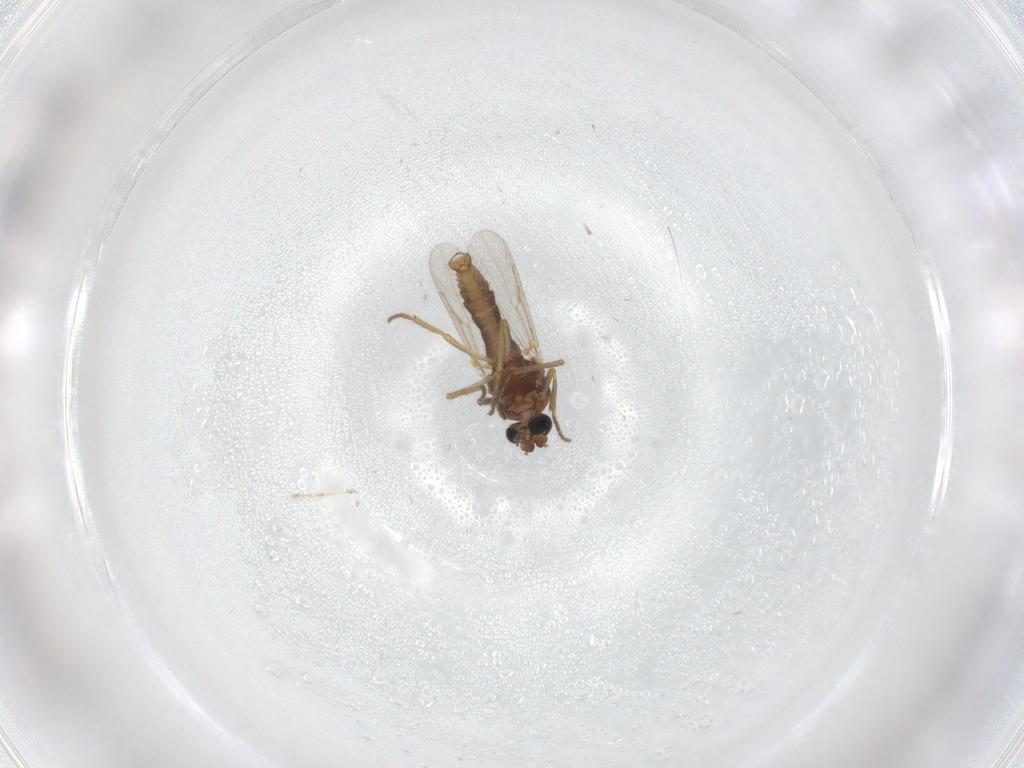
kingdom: Animalia
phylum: Arthropoda
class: Insecta
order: Diptera
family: Ceratopogonidae
